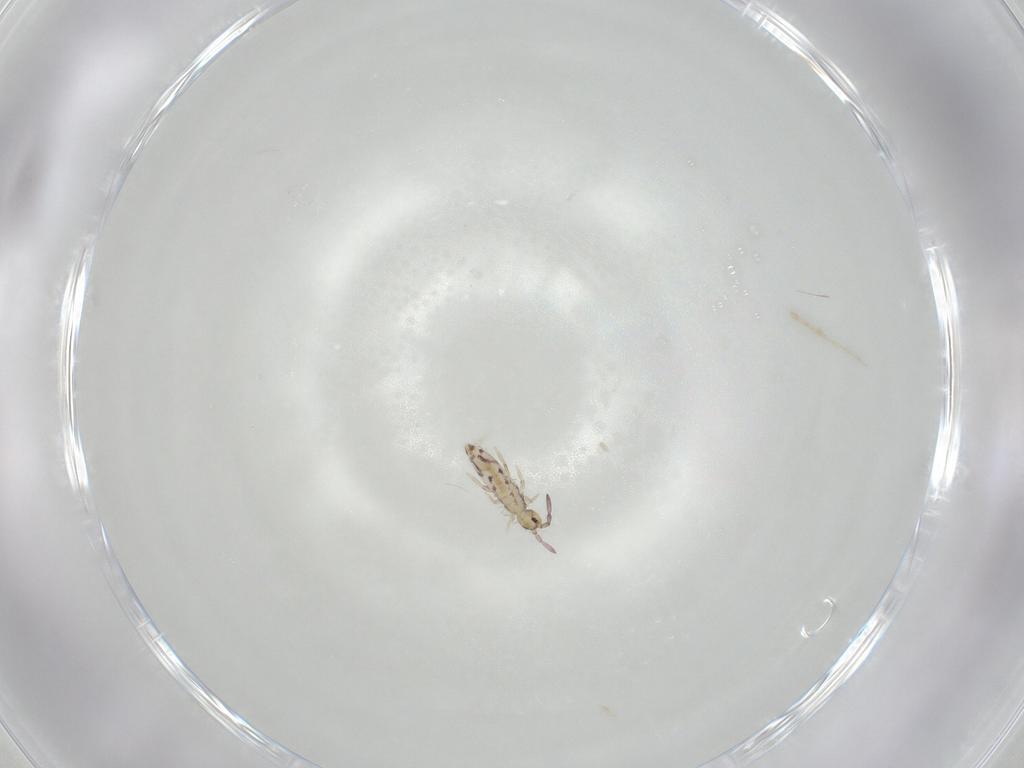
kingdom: Animalia
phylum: Arthropoda
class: Collembola
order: Entomobryomorpha
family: Entomobryidae
